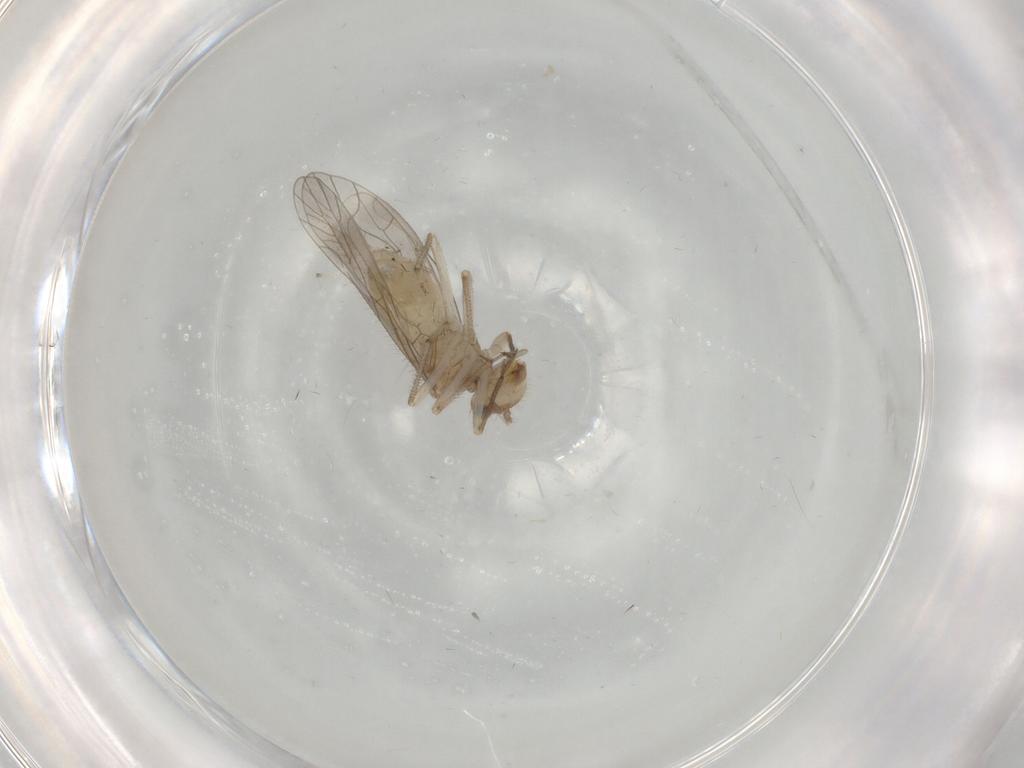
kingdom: Animalia
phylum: Arthropoda
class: Insecta
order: Psocodea
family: Caeciliusidae
